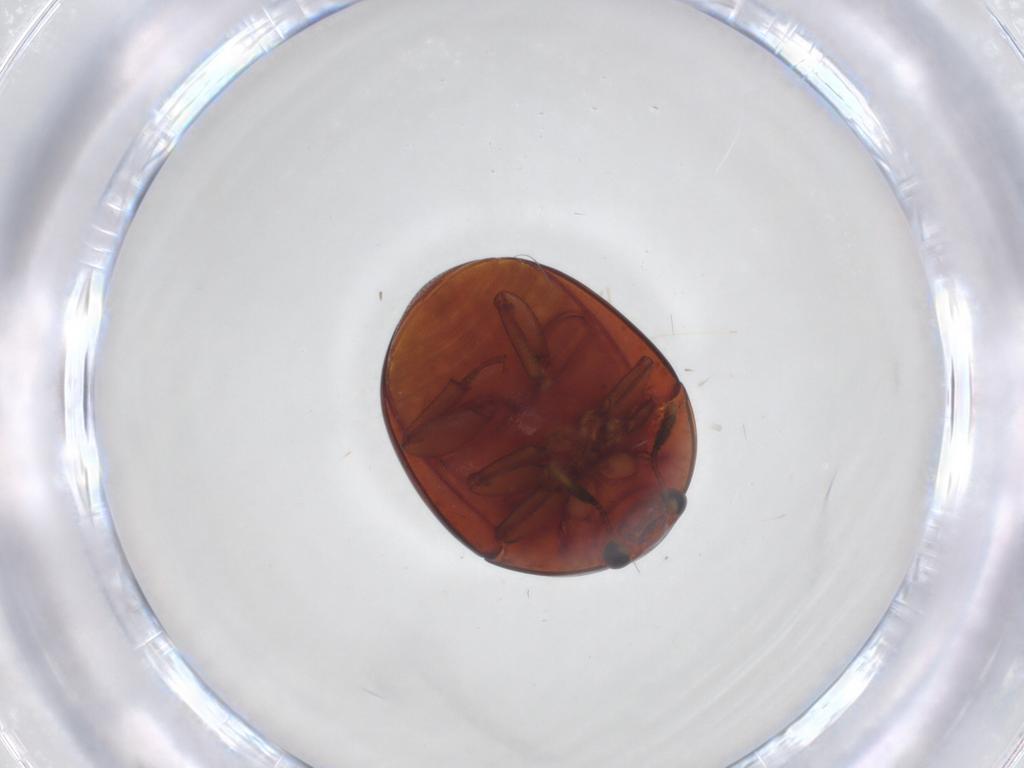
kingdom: Animalia
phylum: Arthropoda
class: Insecta
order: Coleoptera
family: Nitidulidae
